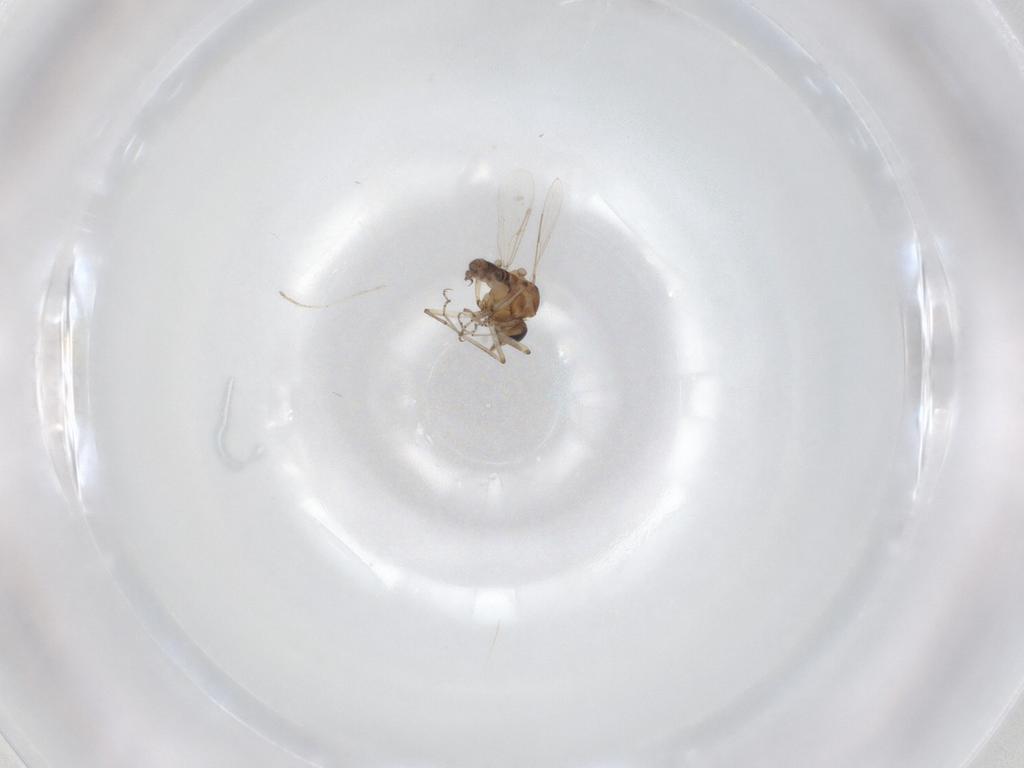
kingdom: Animalia
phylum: Arthropoda
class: Insecta
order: Diptera
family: Ceratopogonidae
